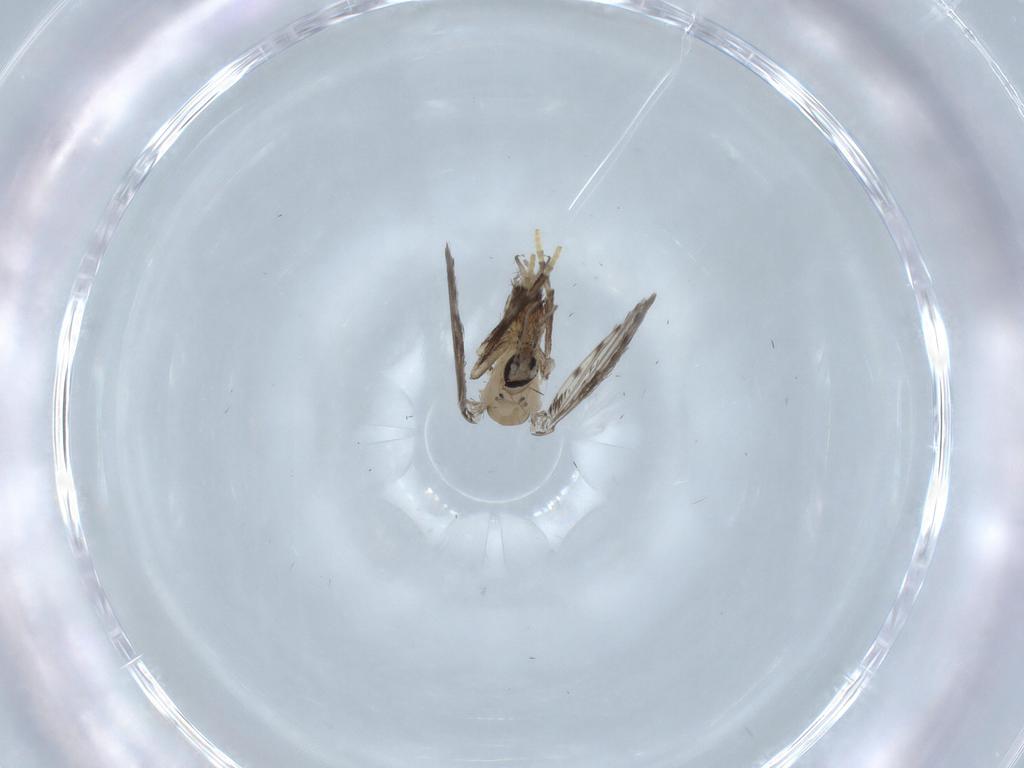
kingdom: Animalia
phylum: Arthropoda
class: Insecta
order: Diptera
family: Psychodidae
